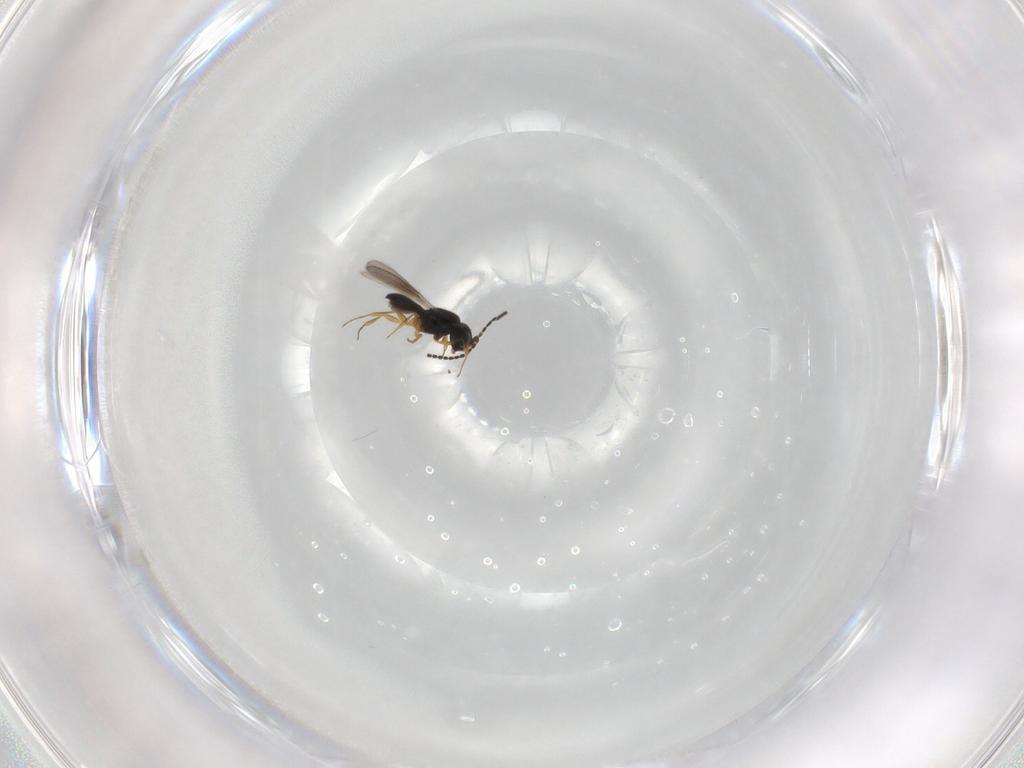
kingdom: Animalia
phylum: Arthropoda
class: Insecta
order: Hymenoptera
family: Scelionidae
